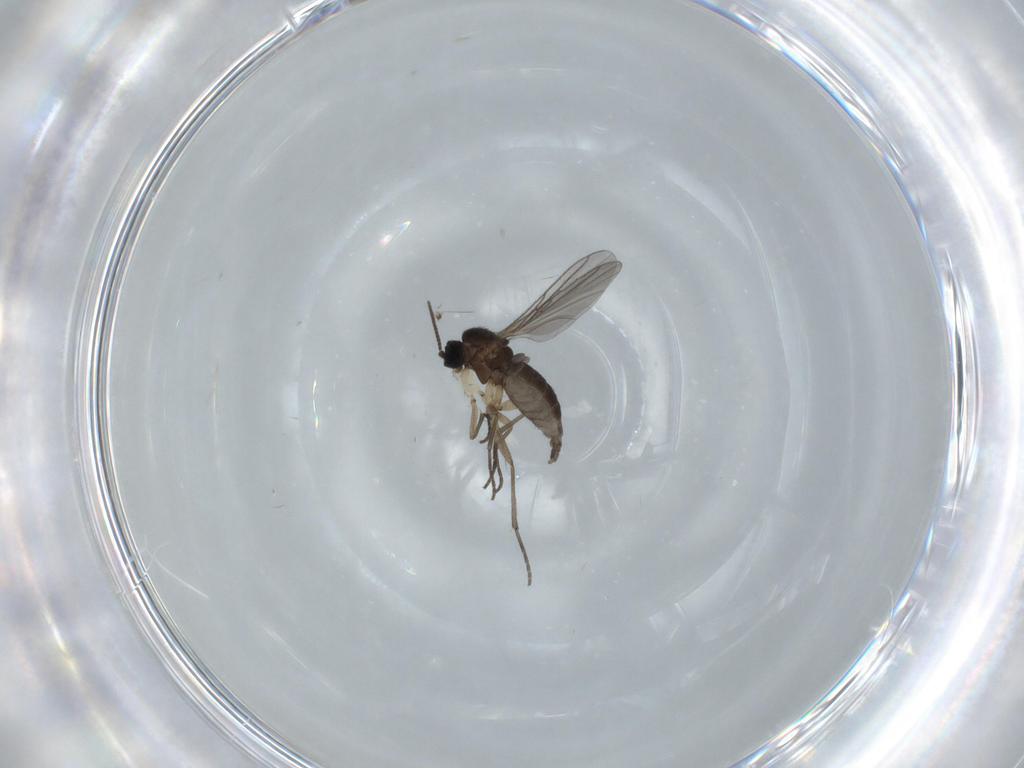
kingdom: Animalia
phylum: Arthropoda
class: Insecta
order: Diptera
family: Sciaridae
